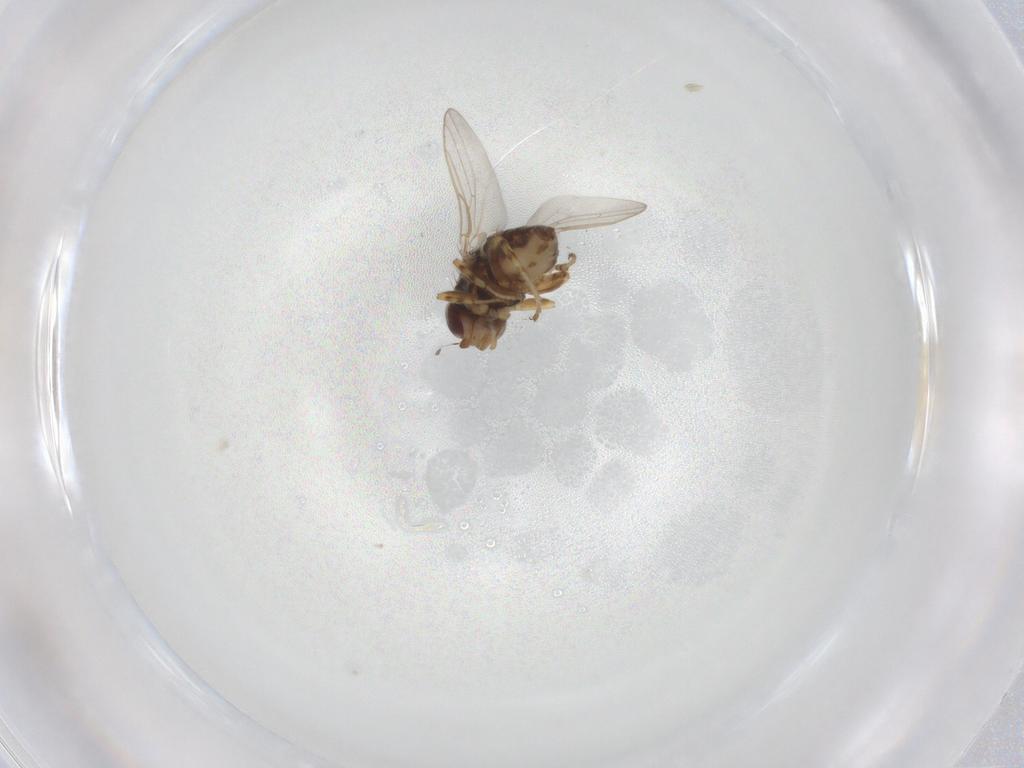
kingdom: Animalia
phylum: Arthropoda
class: Insecta
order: Diptera
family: Chloropidae
